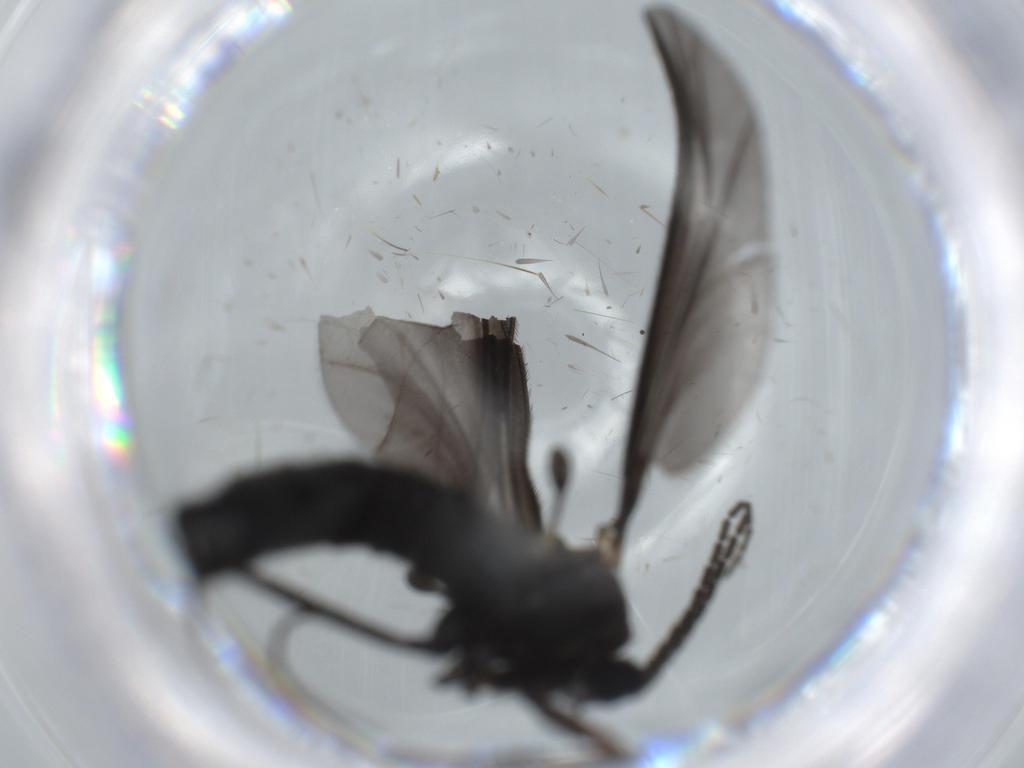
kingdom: Animalia
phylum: Arthropoda
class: Insecta
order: Diptera
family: Sciaridae
